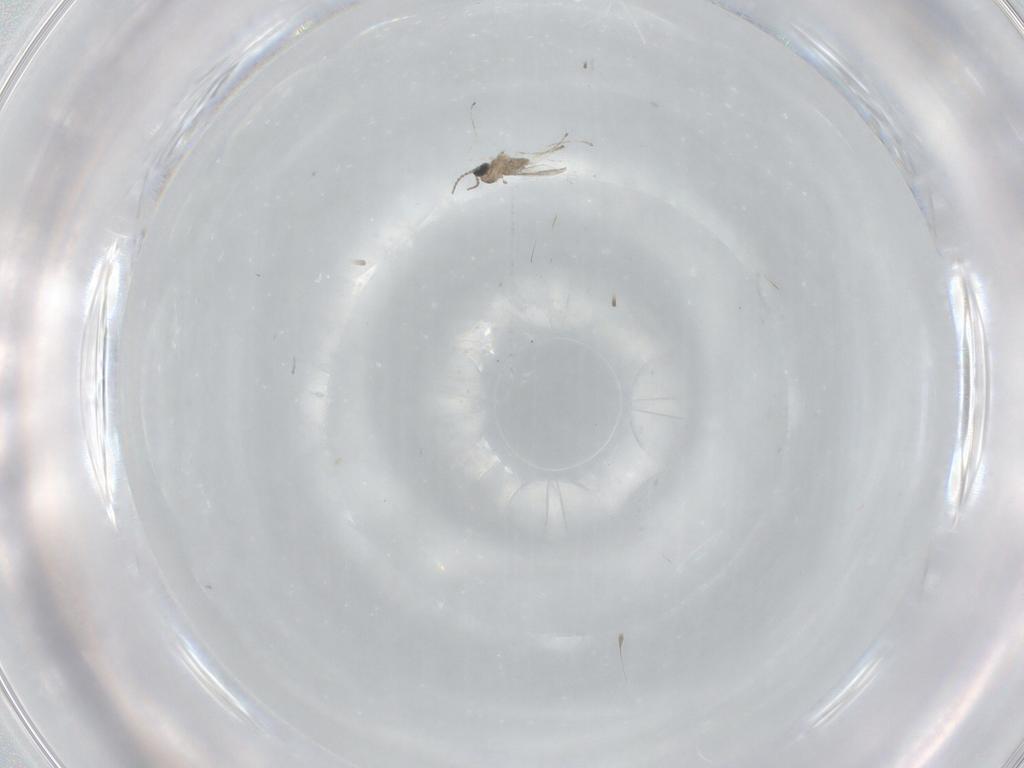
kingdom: Animalia
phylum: Arthropoda
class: Insecta
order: Diptera
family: Cecidomyiidae
